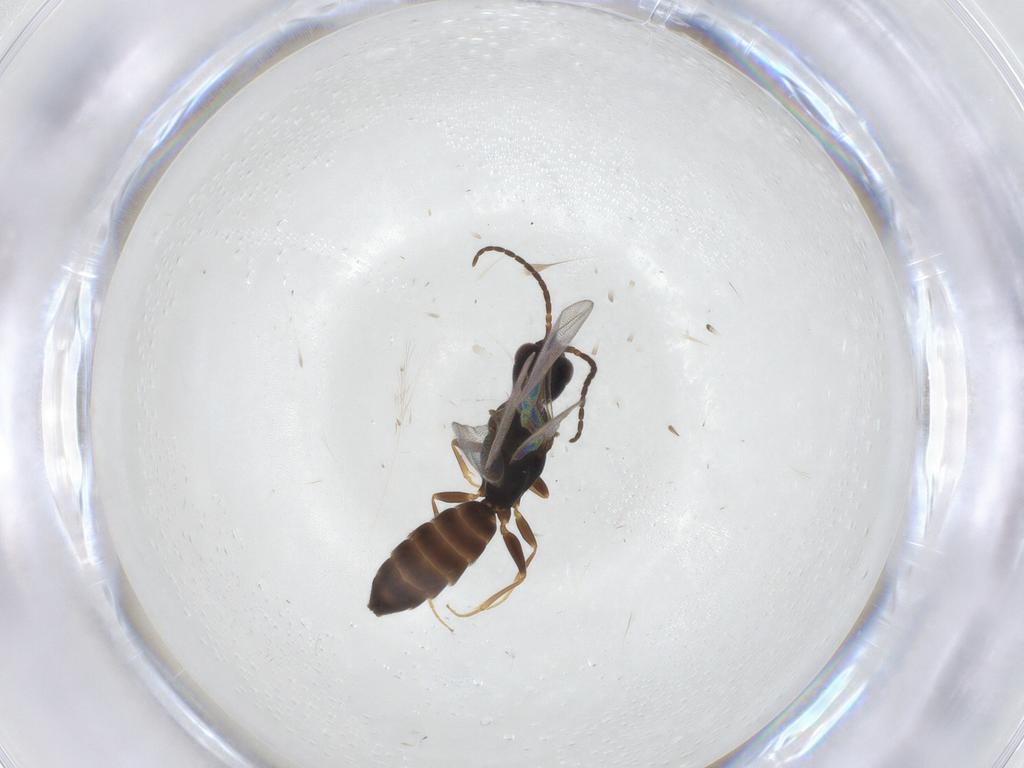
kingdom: Animalia
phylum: Arthropoda
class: Insecta
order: Hymenoptera
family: Bethylidae
